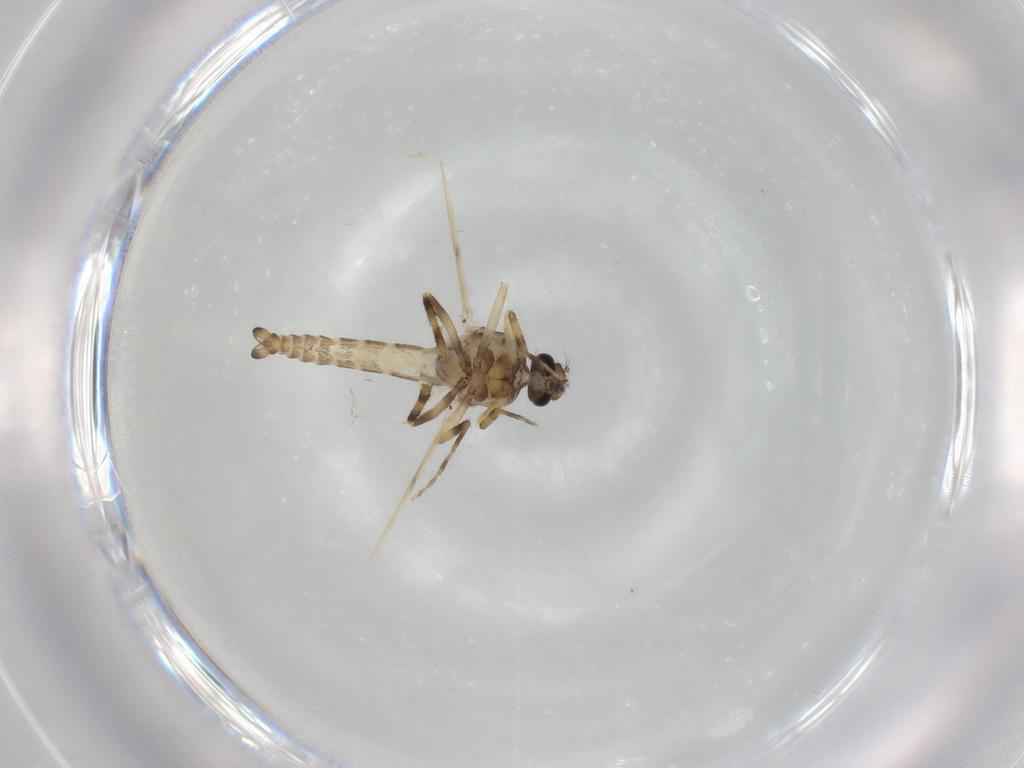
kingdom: Animalia
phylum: Arthropoda
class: Insecta
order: Diptera
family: Ceratopogonidae
